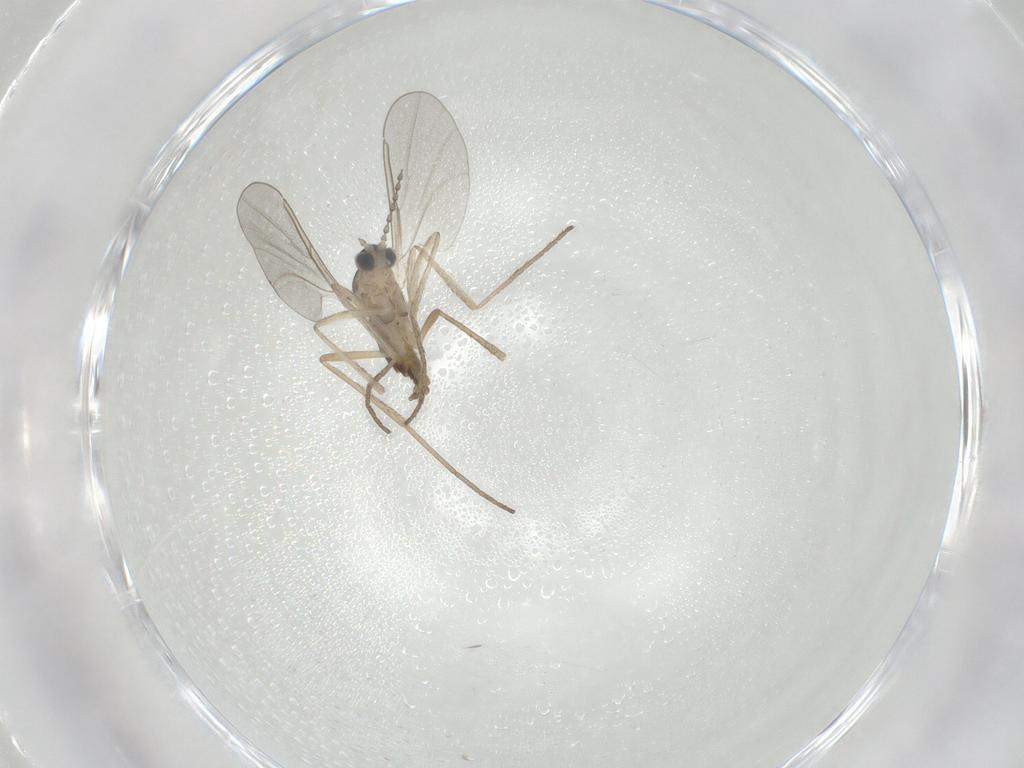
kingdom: Animalia
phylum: Arthropoda
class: Insecta
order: Diptera
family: Cecidomyiidae
